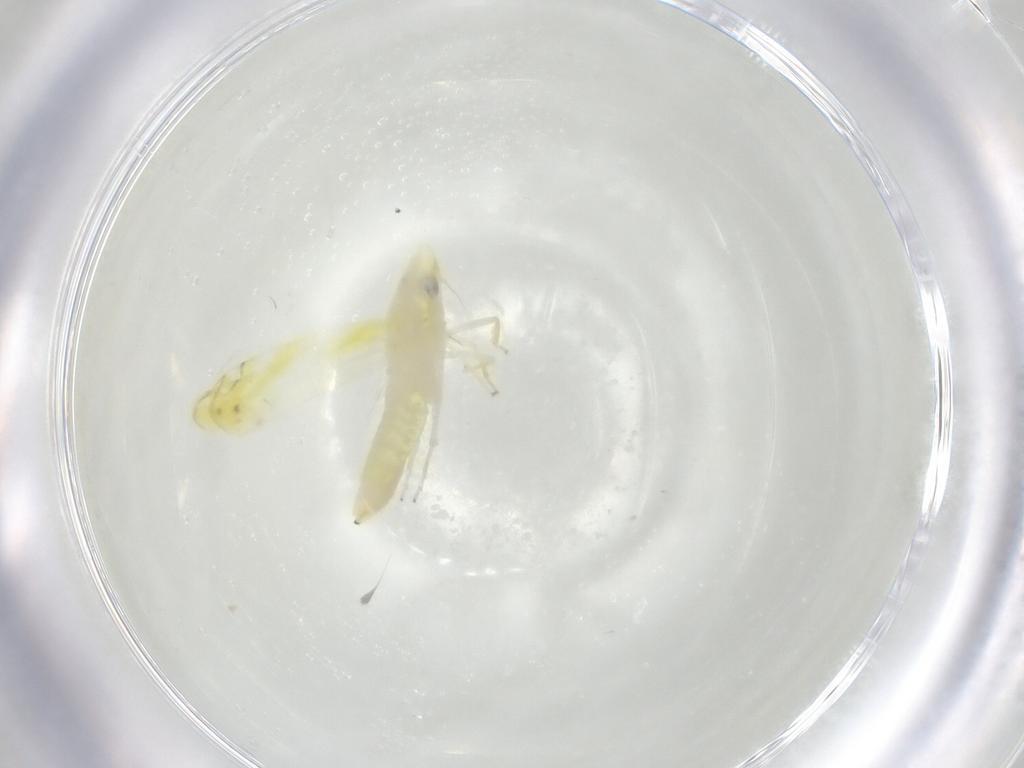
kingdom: Animalia
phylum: Arthropoda
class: Insecta
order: Hemiptera
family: Cicadellidae
